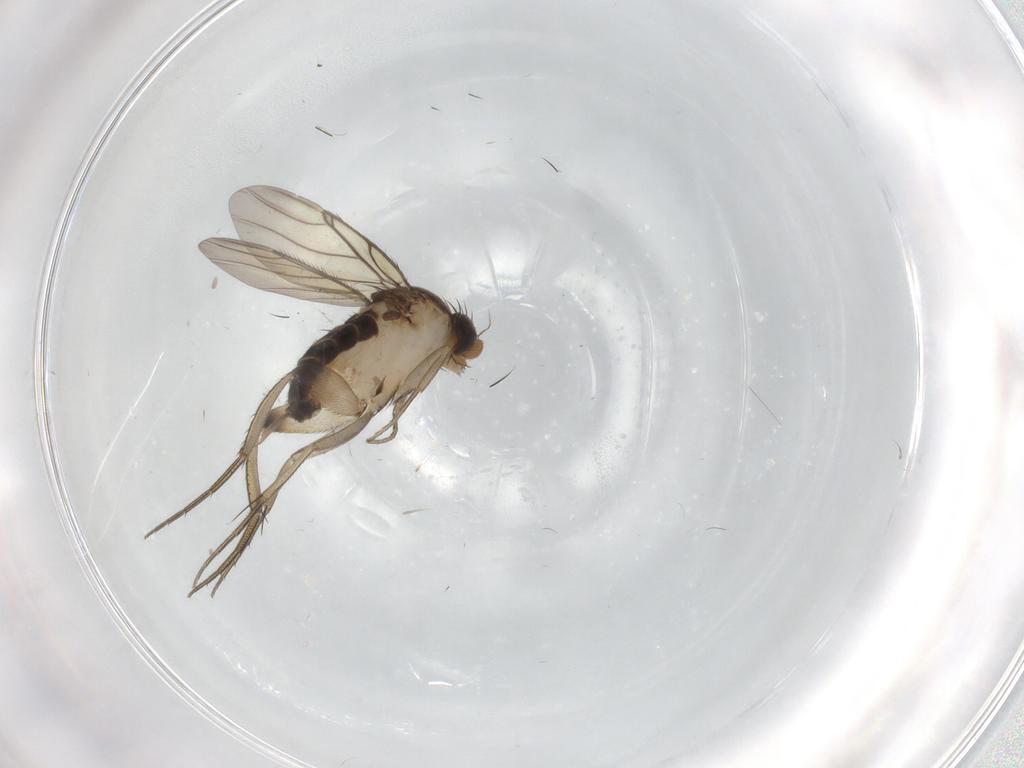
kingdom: Animalia
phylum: Arthropoda
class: Insecta
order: Diptera
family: Phoridae
